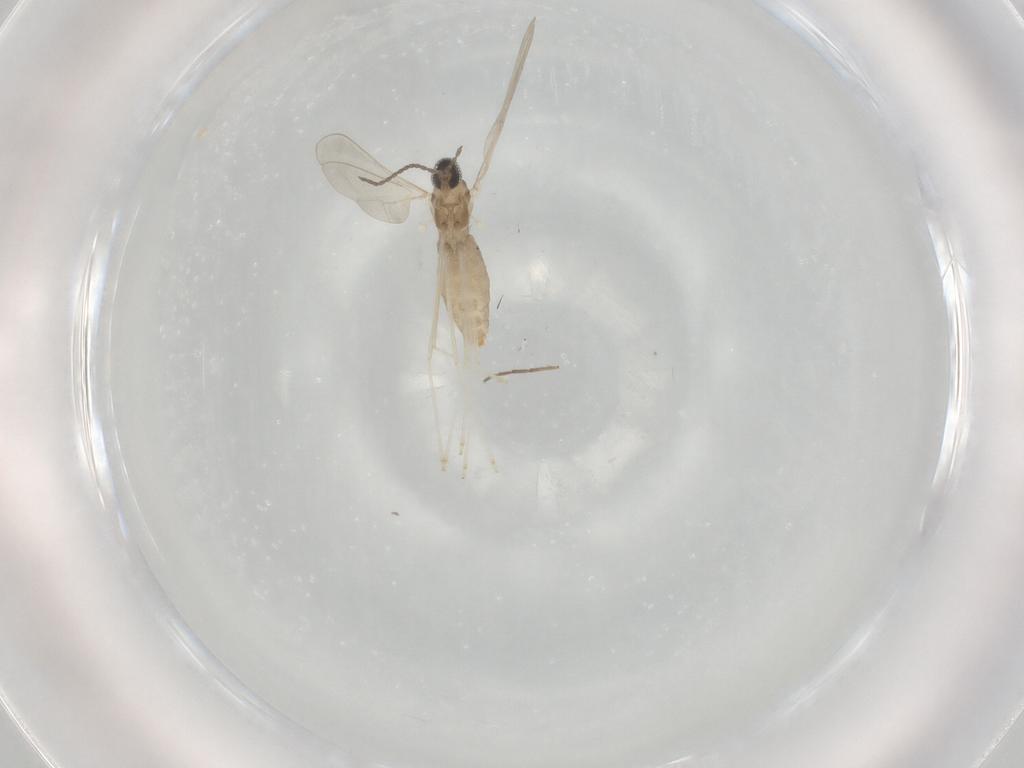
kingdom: Animalia
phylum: Arthropoda
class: Insecta
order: Diptera
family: Cecidomyiidae
